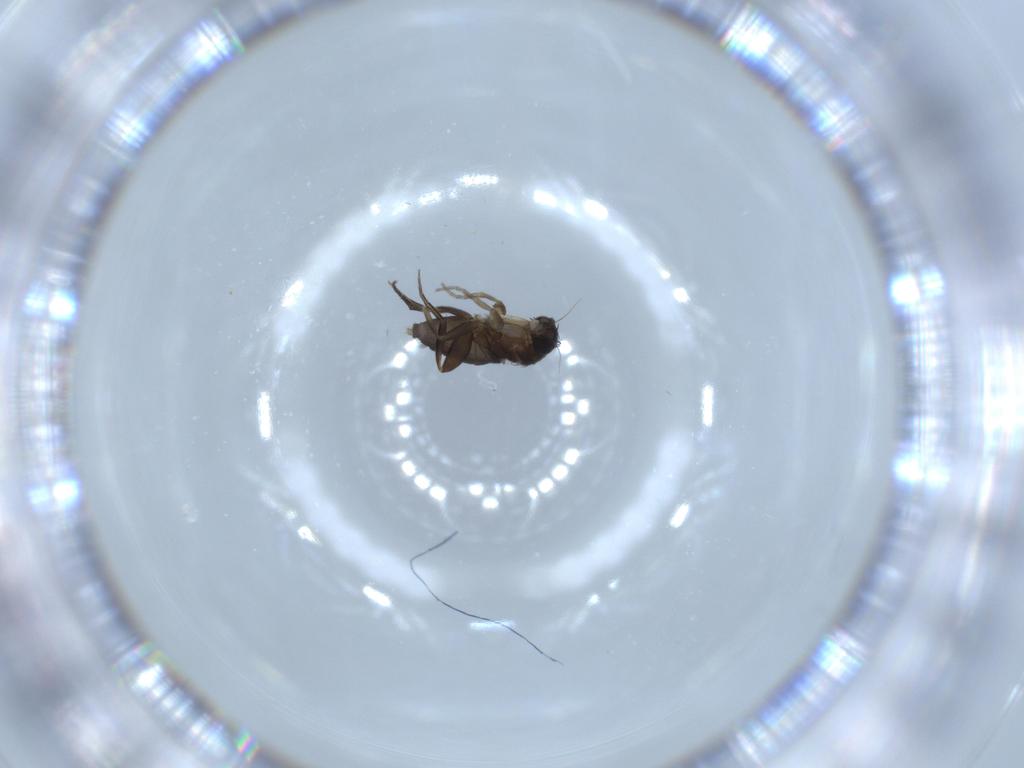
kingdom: Animalia
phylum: Arthropoda
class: Insecta
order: Diptera
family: Phoridae
